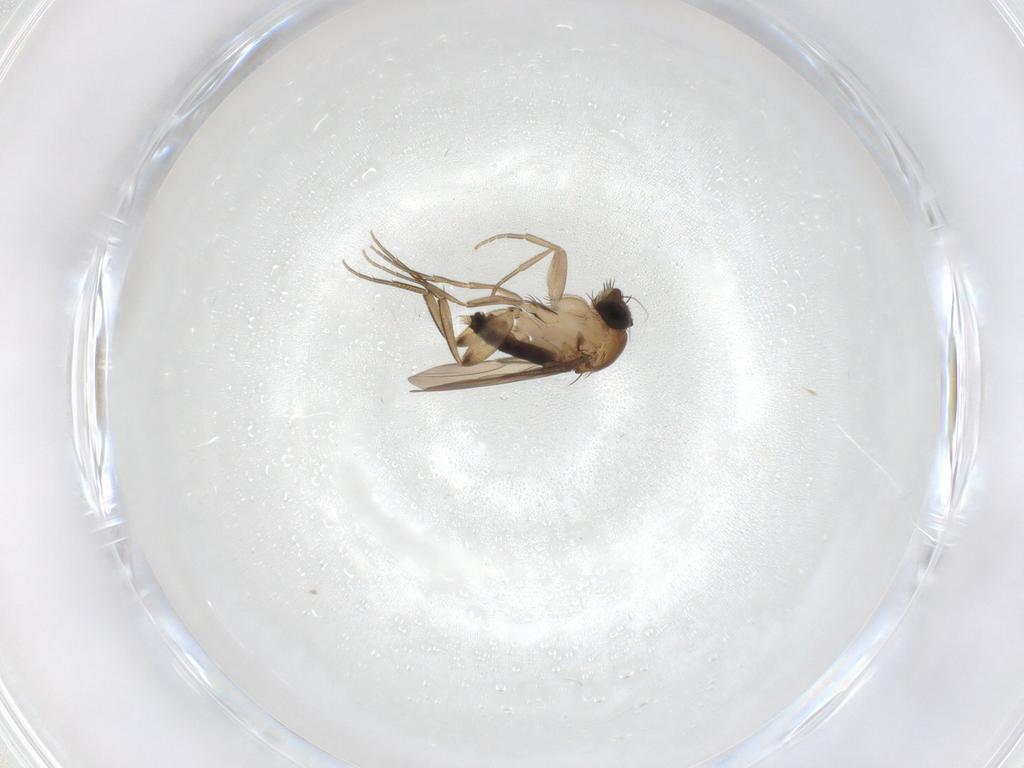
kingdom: Animalia
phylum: Arthropoda
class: Insecta
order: Diptera
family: Phoridae
